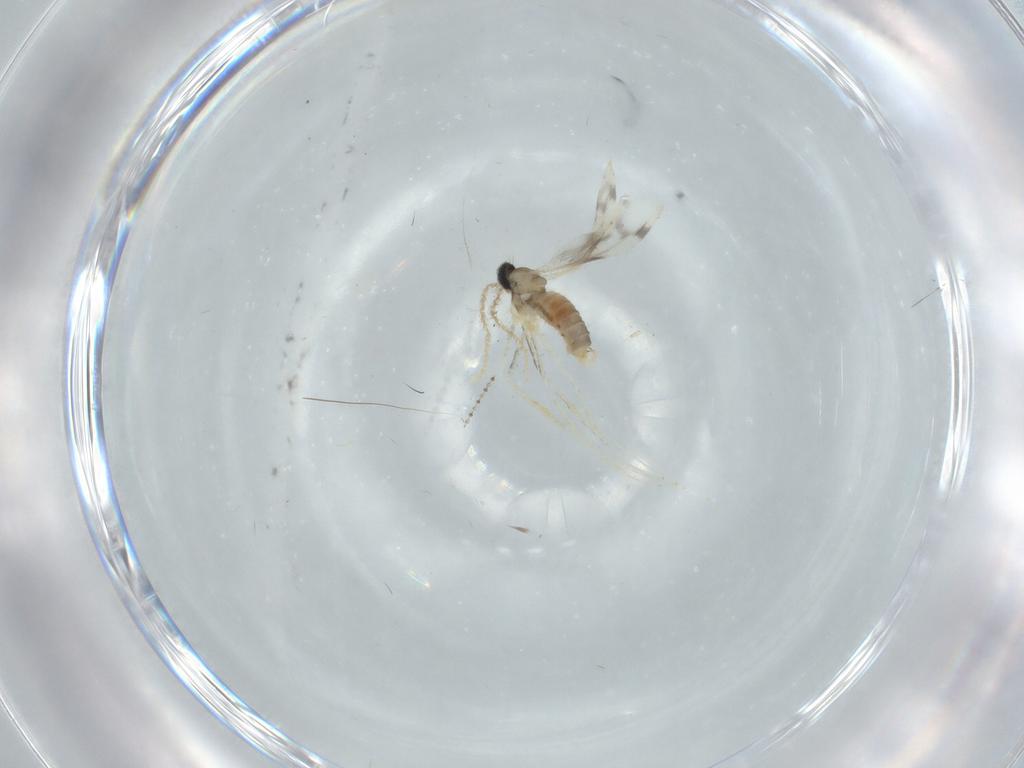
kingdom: Animalia
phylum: Arthropoda
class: Insecta
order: Diptera
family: Cecidomyiidae
